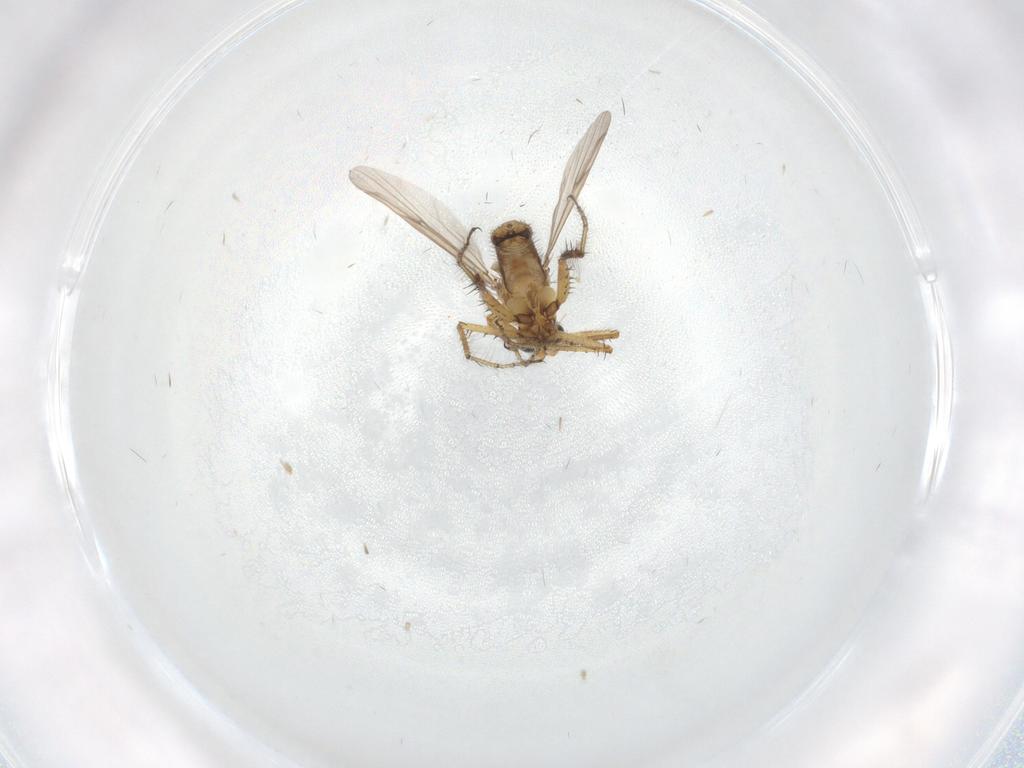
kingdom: Animalia
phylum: Arthropoda
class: Insecta
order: Diptera
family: Ceratopogonidae
